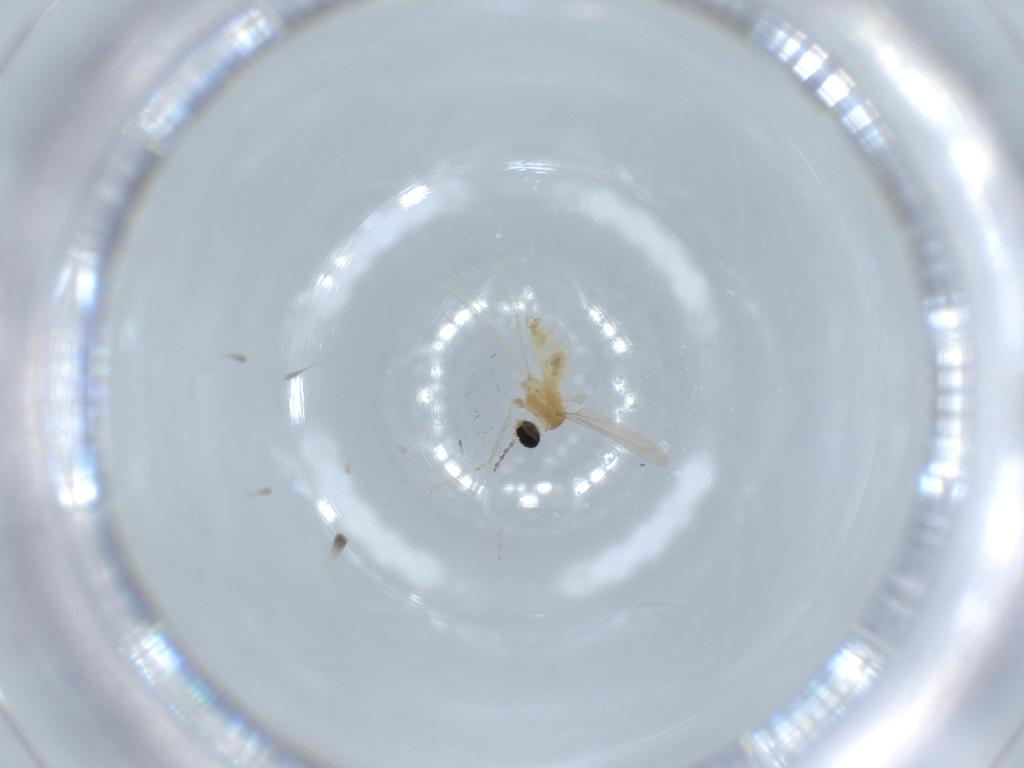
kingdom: Animalia
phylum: Arthropoda
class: Insecta
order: Diptera
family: Cecidomyiidae
